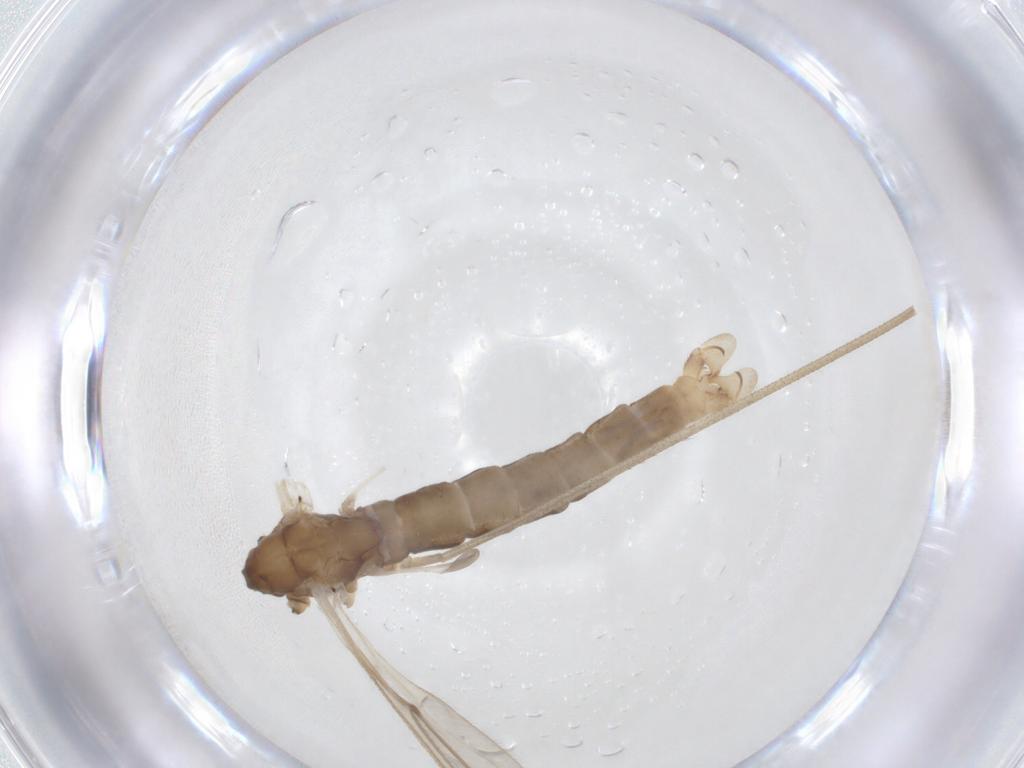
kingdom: Animalia
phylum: Arthropoda
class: Insecta
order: Diptera
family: Limoniidae
